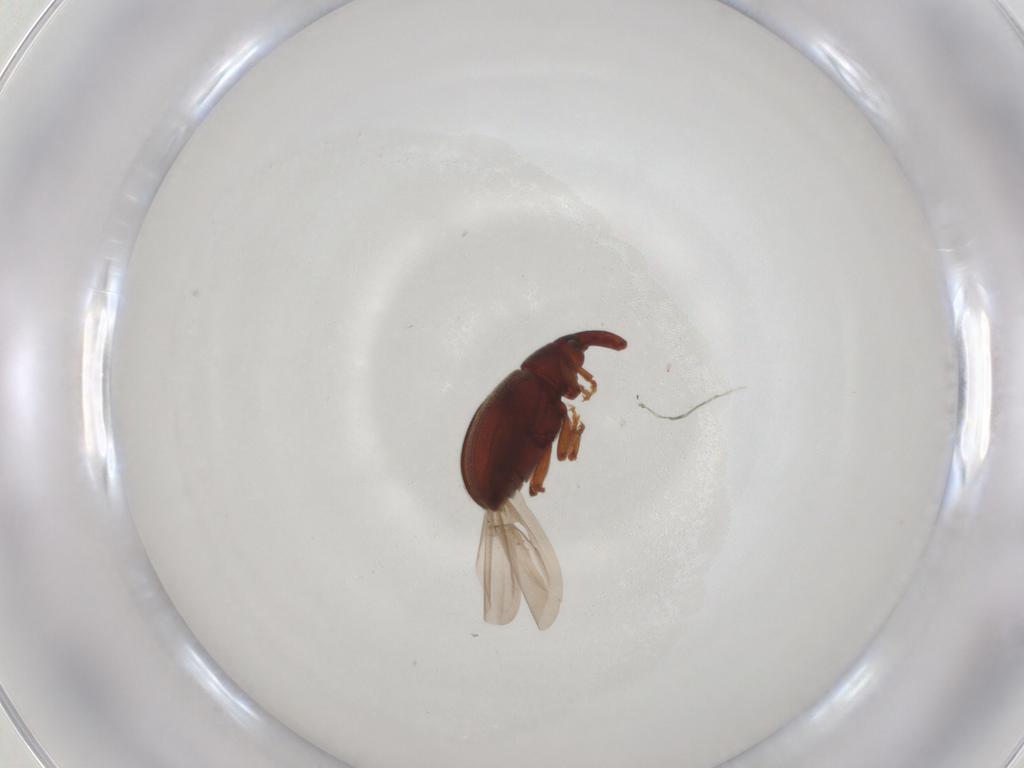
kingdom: Animalia
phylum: Arthropoda
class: Insecta
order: Coleoptera
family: Curculionidae
